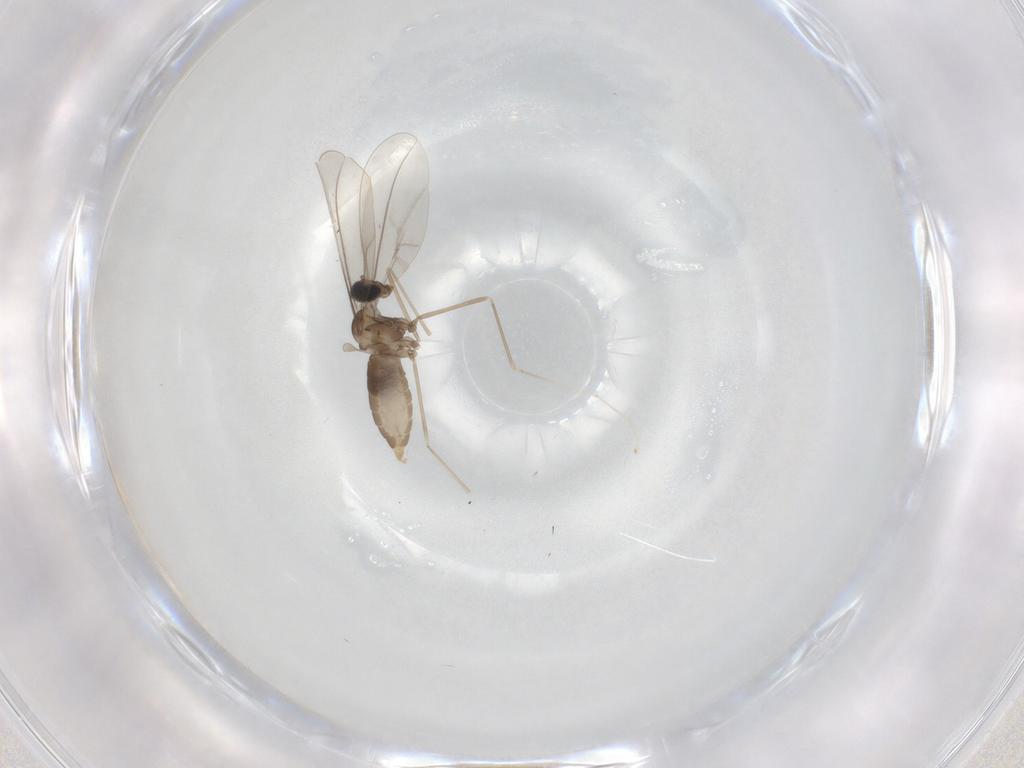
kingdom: Animalia
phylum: Arthropoda
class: Insecta
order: Diptera
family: Cecidomyiidae
